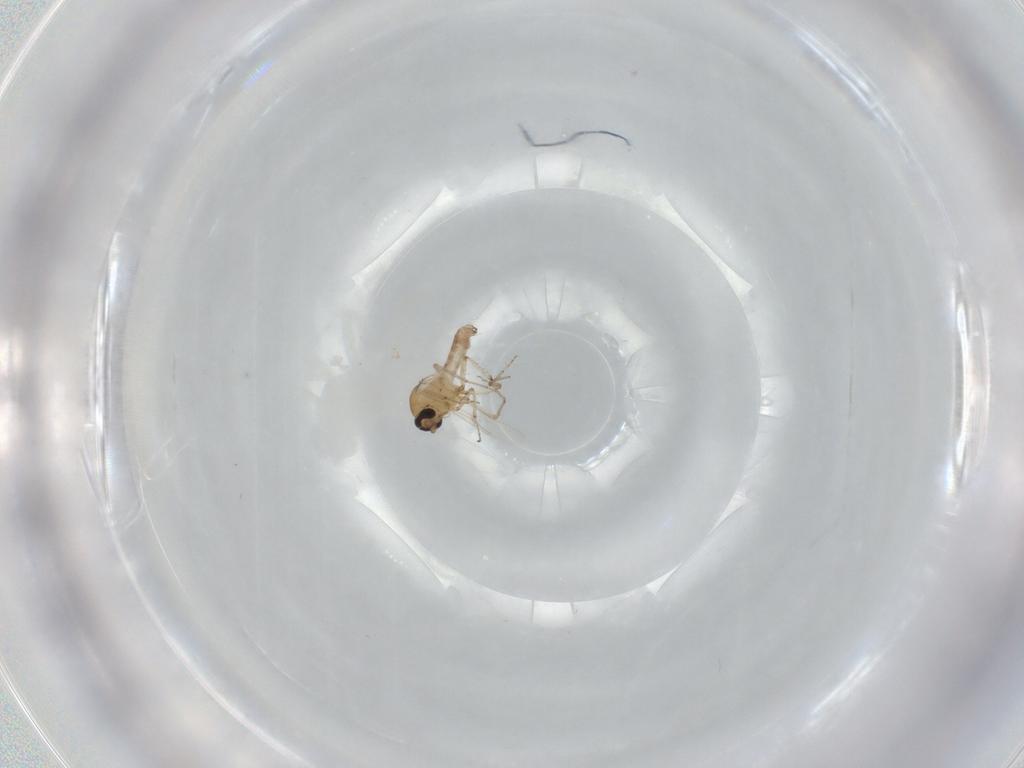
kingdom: Animalia
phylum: Arthropoda
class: Insecta
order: Diptera
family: Ceratopogonidae
